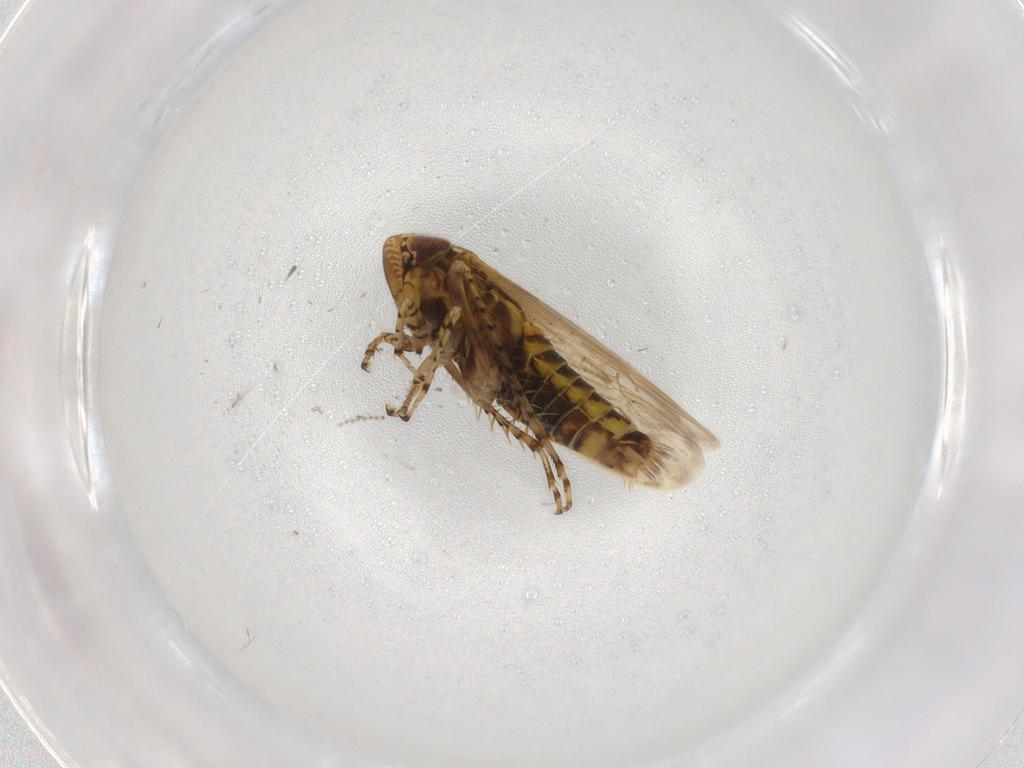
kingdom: Animalia
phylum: Arthropoda
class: Insecta
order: Hemiptera
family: Cicadellidae
